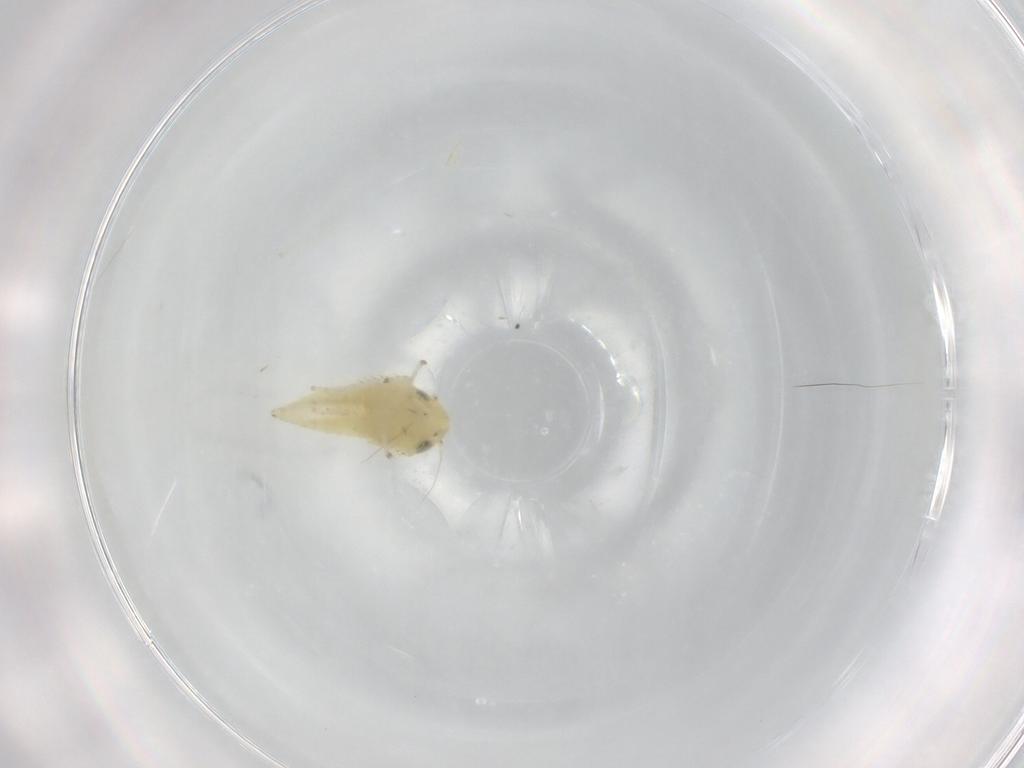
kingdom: Animalia
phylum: Arthropoda
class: Insecta
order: Hemiptera
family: Cicadellidae
